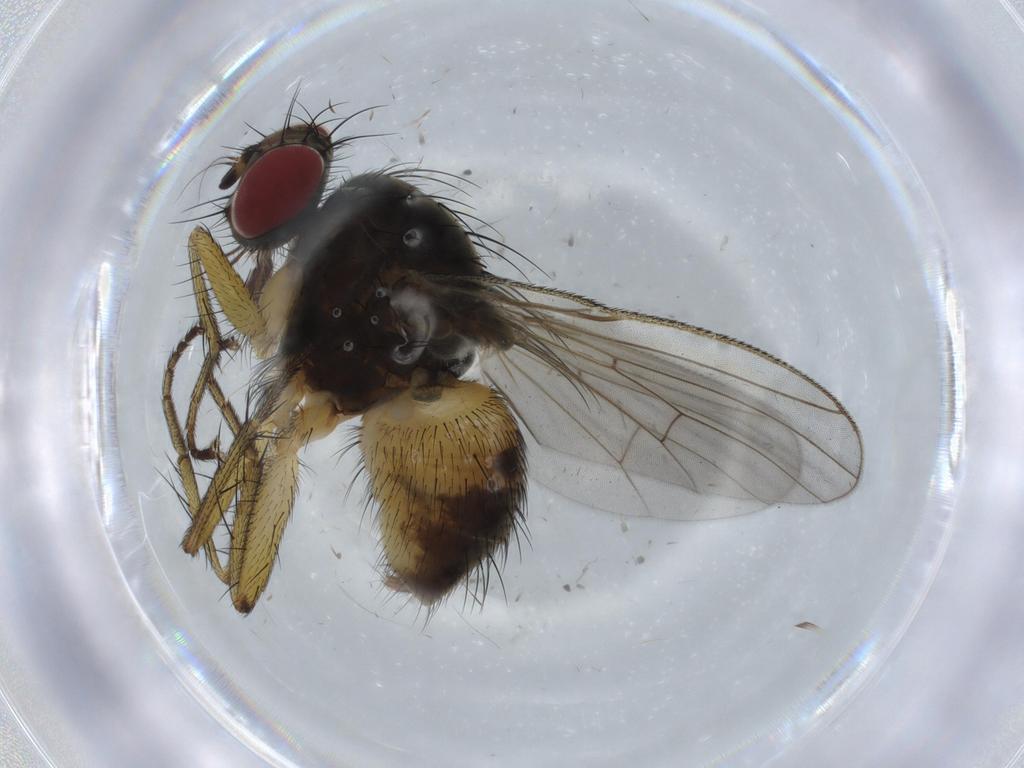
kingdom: Animalia
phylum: Arthropoda
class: Insecta
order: Diptera
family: Muscidae
